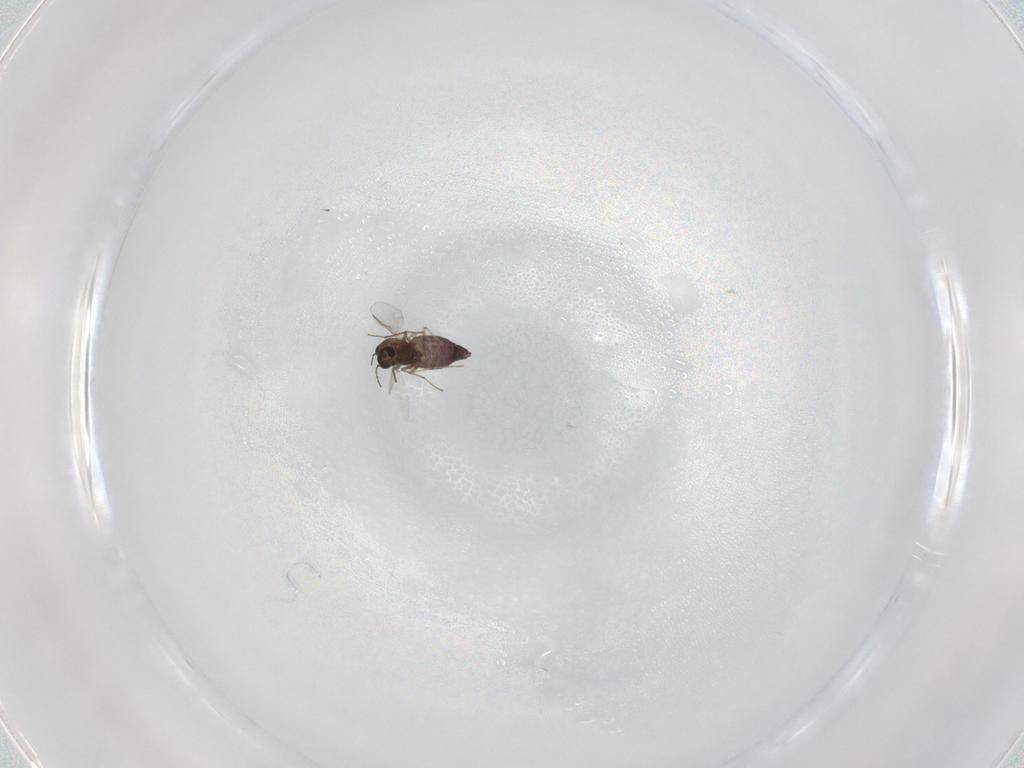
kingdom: Animalia
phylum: Arthropoda
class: Insecta
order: Diptera
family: Chironomidae
